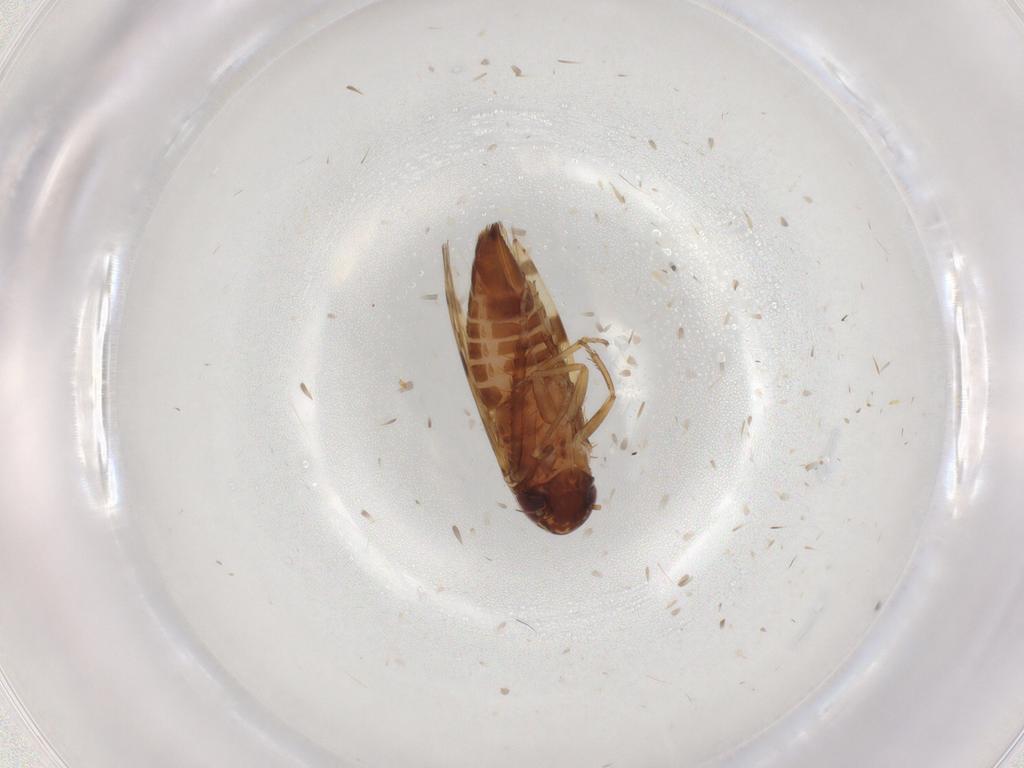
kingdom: Animalia
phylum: Arthropoda
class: Insecta
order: Hemiptera
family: Cicadellidae
